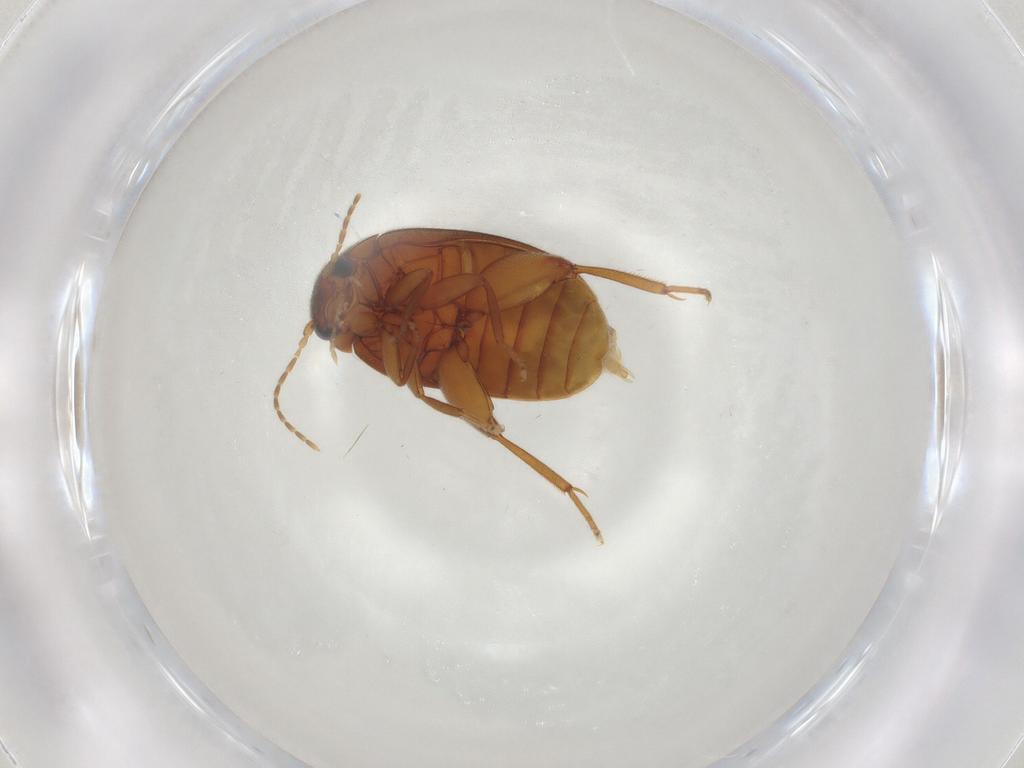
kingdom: Animalia
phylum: Arthropoda
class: Insecta
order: Coleoptera
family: Scirtidae
